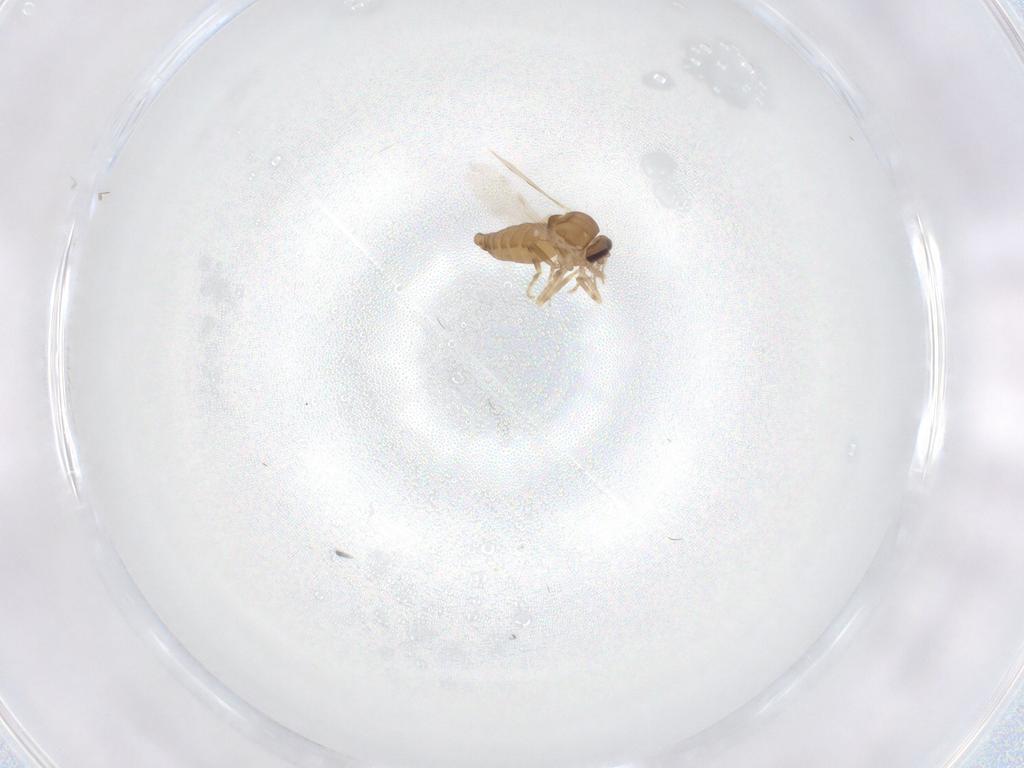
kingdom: Animalia
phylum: Arthropoda
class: Insecta
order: Diptera
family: Ceratopogonidae
